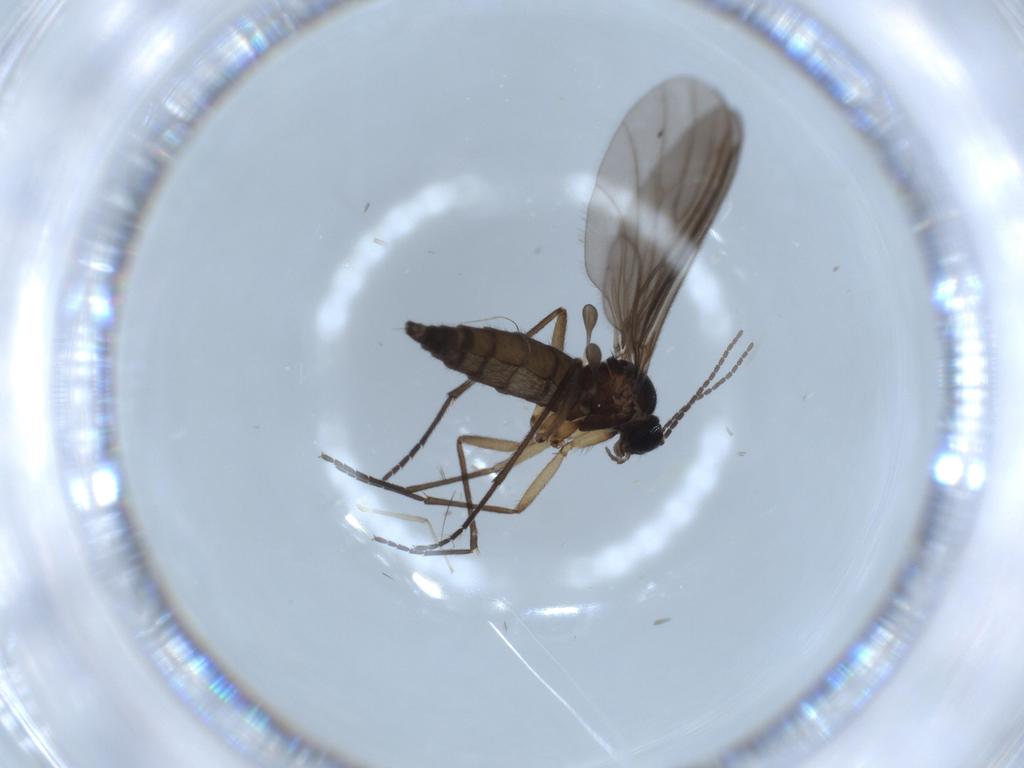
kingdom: Animalia
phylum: Arthropoda
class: Insecta
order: Diptera
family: Sciaridae
